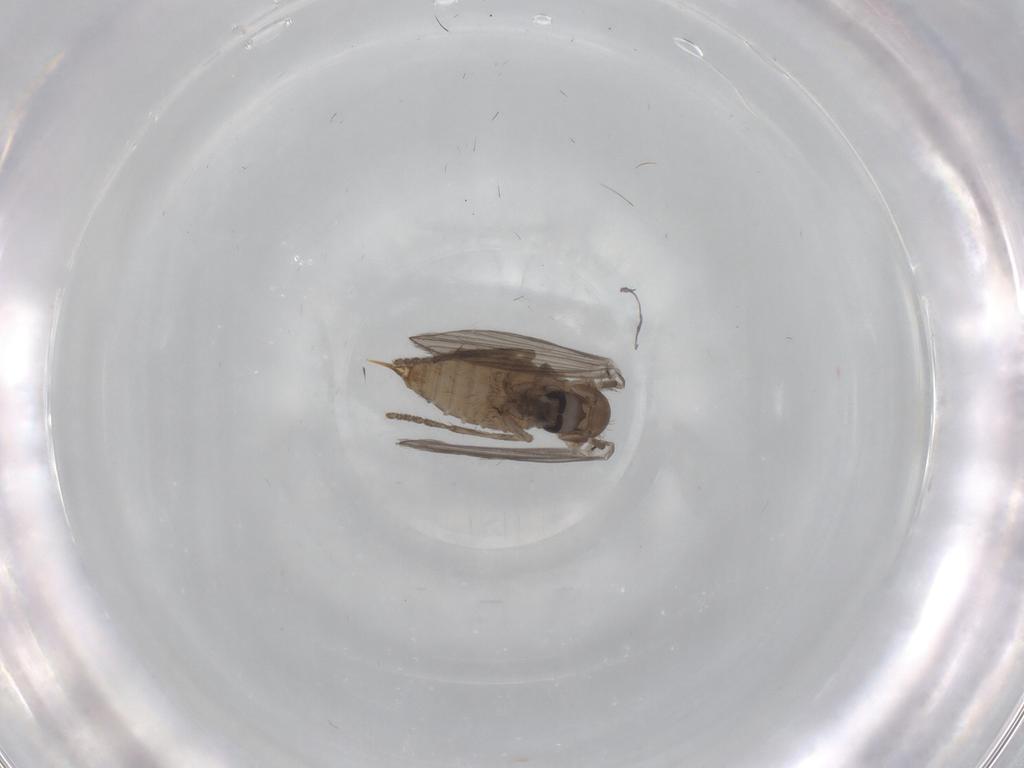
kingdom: Animalia
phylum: Arthropoda
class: Insecta
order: Diptera
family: Psychodidae
